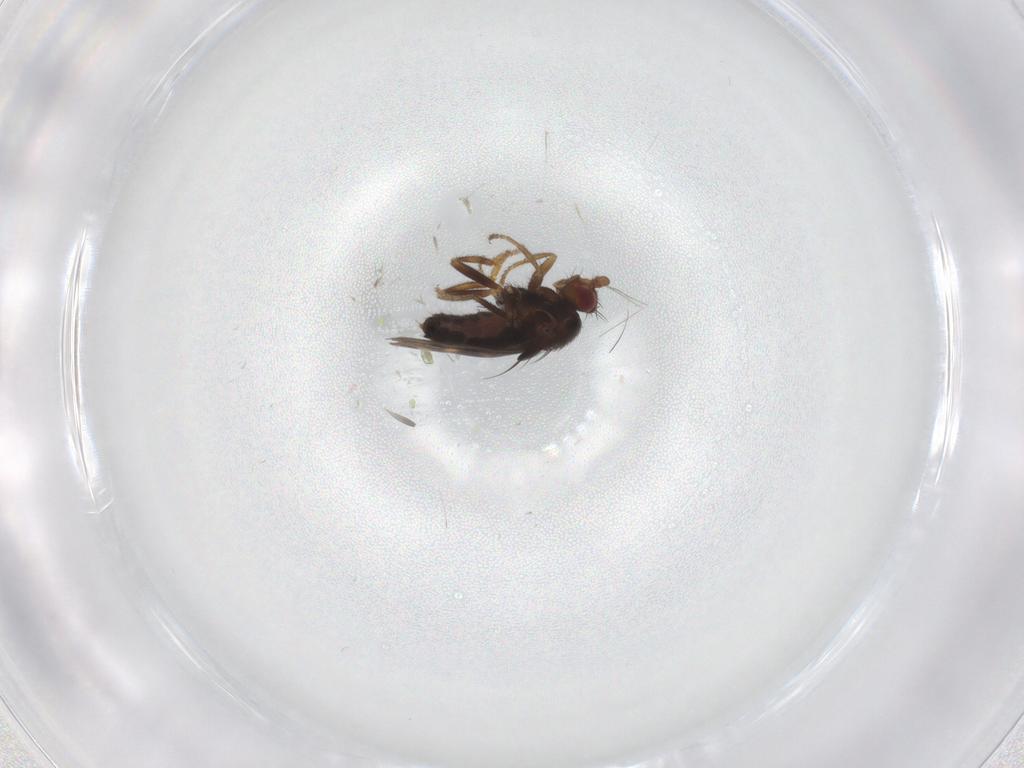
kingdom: Animalia
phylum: Arthropoda
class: Insecta
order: Diptera
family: Sphaeroceridae
